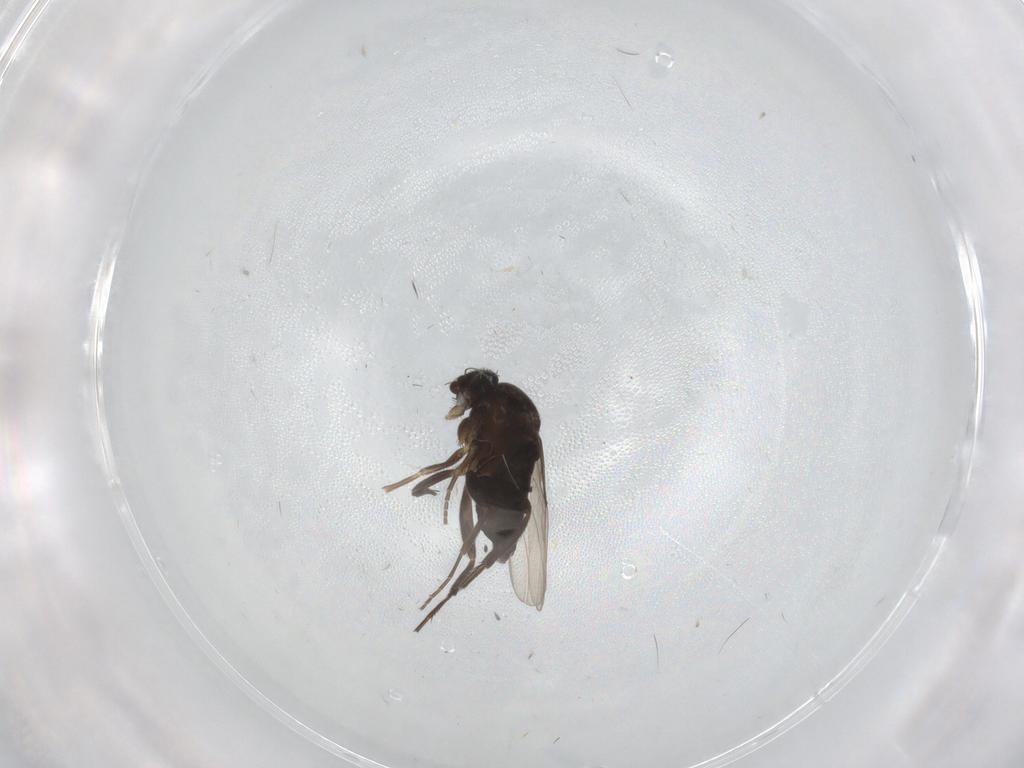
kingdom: Animalia
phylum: Arthropoda
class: Insecta
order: Diptera
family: Phoridae
